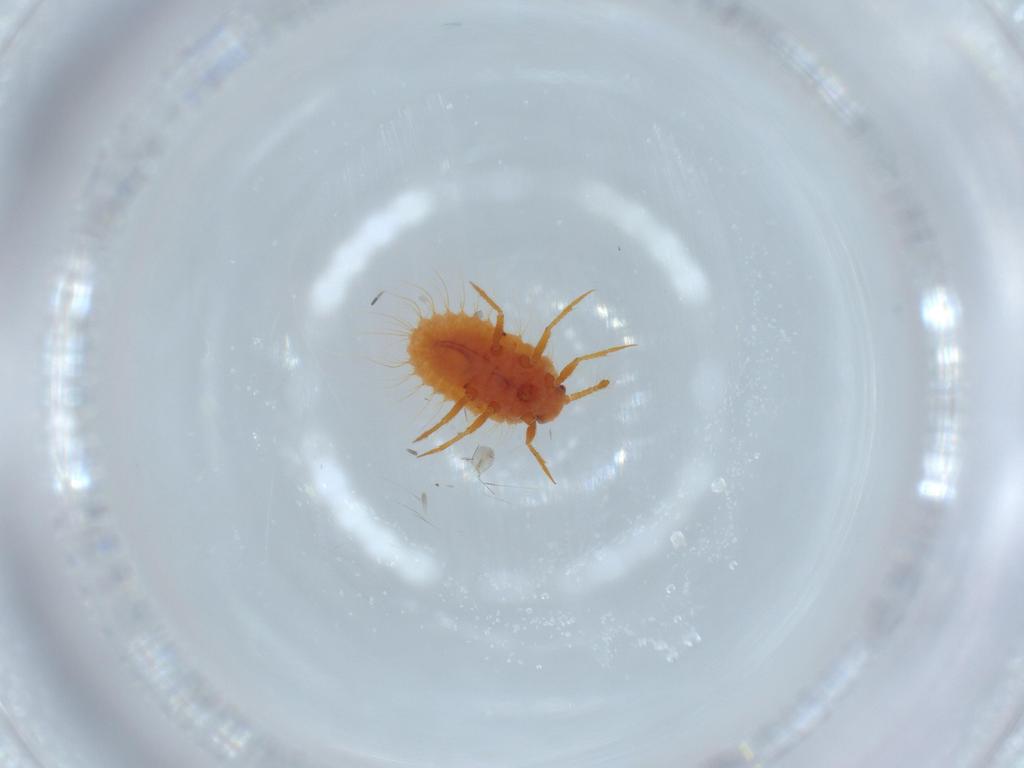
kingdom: Animalia
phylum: Arthropoda
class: Insecta
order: Hemiptera
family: Coccoidea_incertae_sedis
